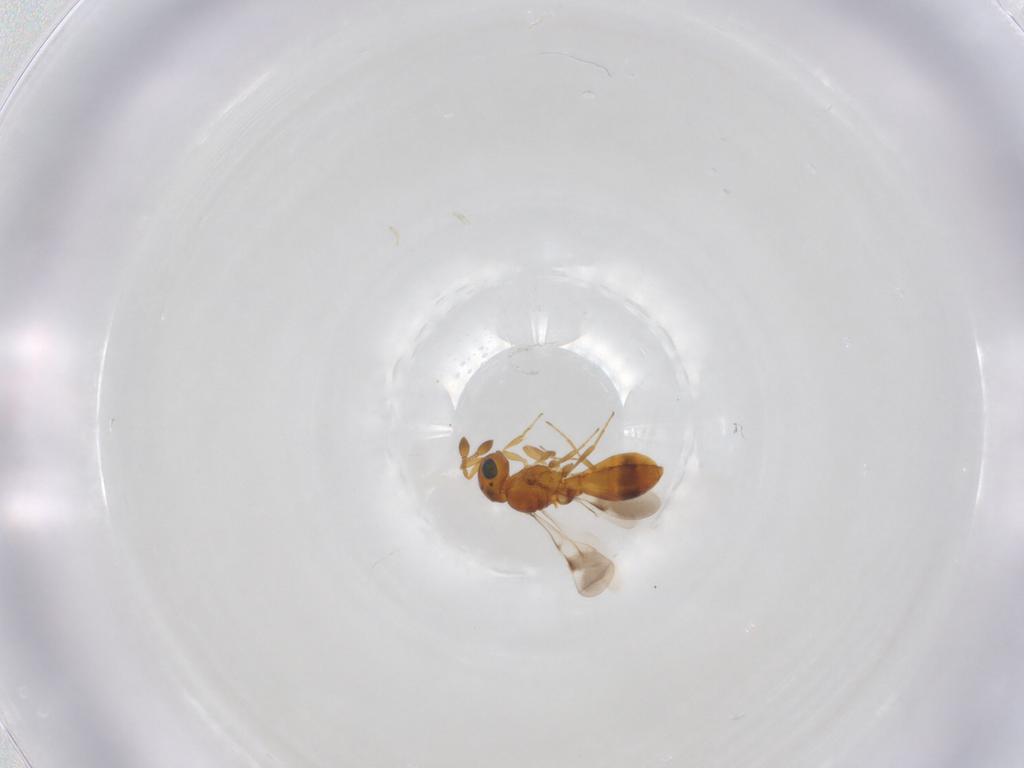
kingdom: Animalia
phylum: Arthropoda
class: Insecta
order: Hymenoptera
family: Scelionidae
